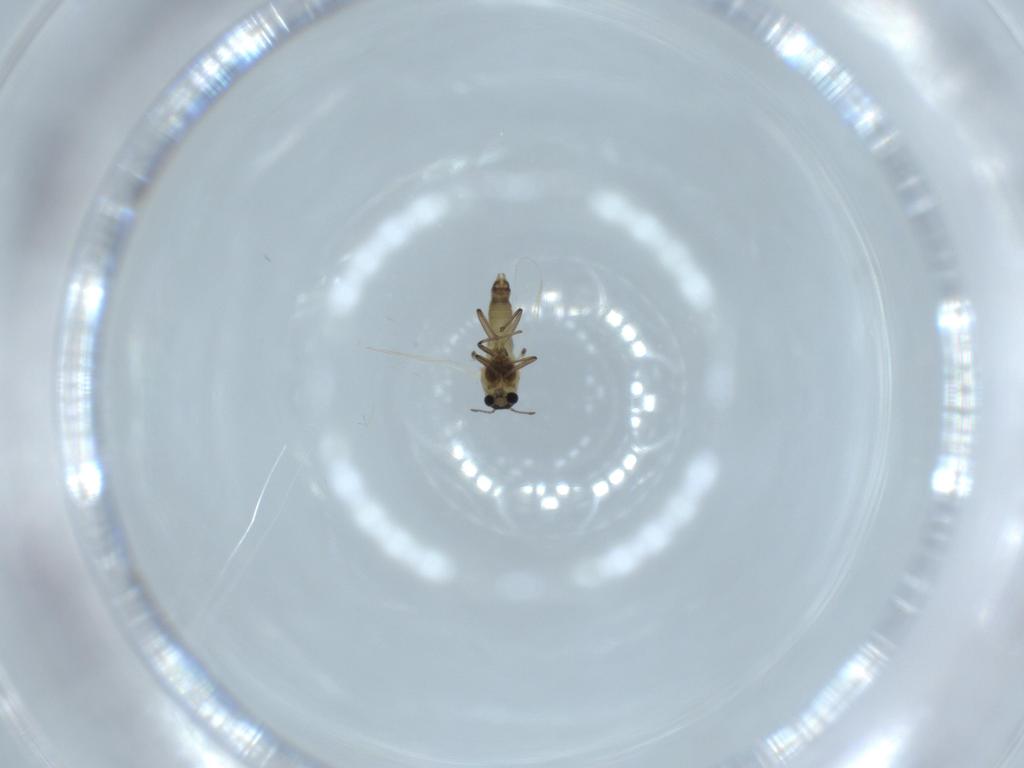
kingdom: Animalia
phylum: Arthropoda
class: Insecta
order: Diptera
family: Chironomidae
